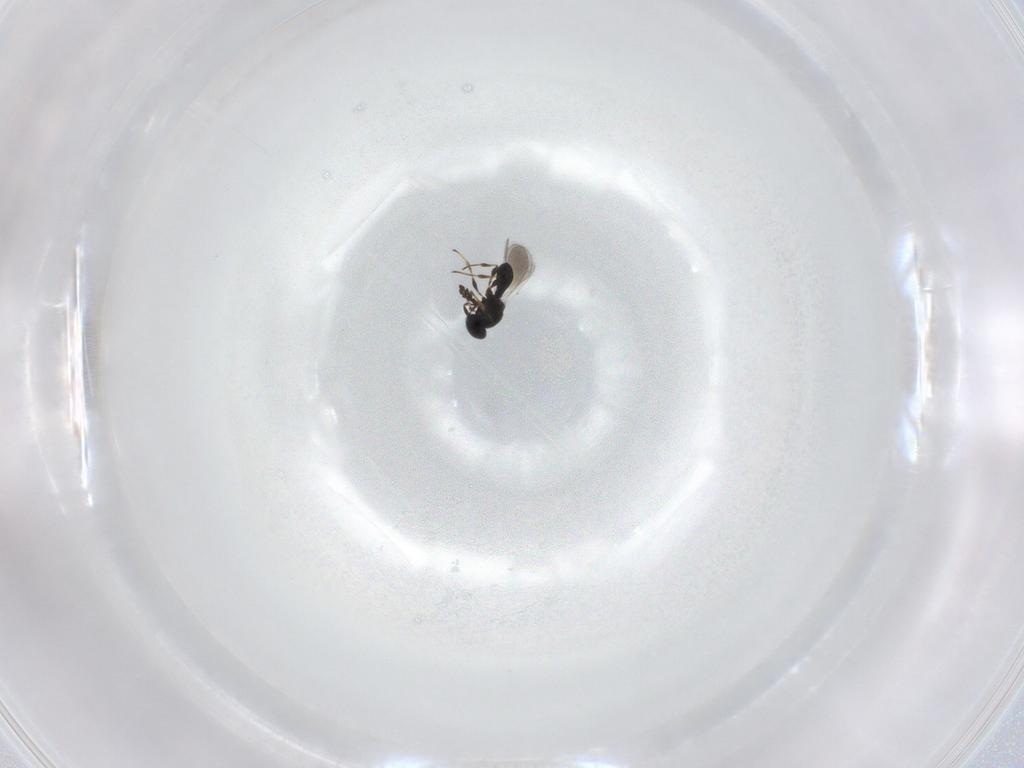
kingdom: Animalia
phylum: Arthropoda
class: Insecta
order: Hymenoptera
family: Platygastridae
